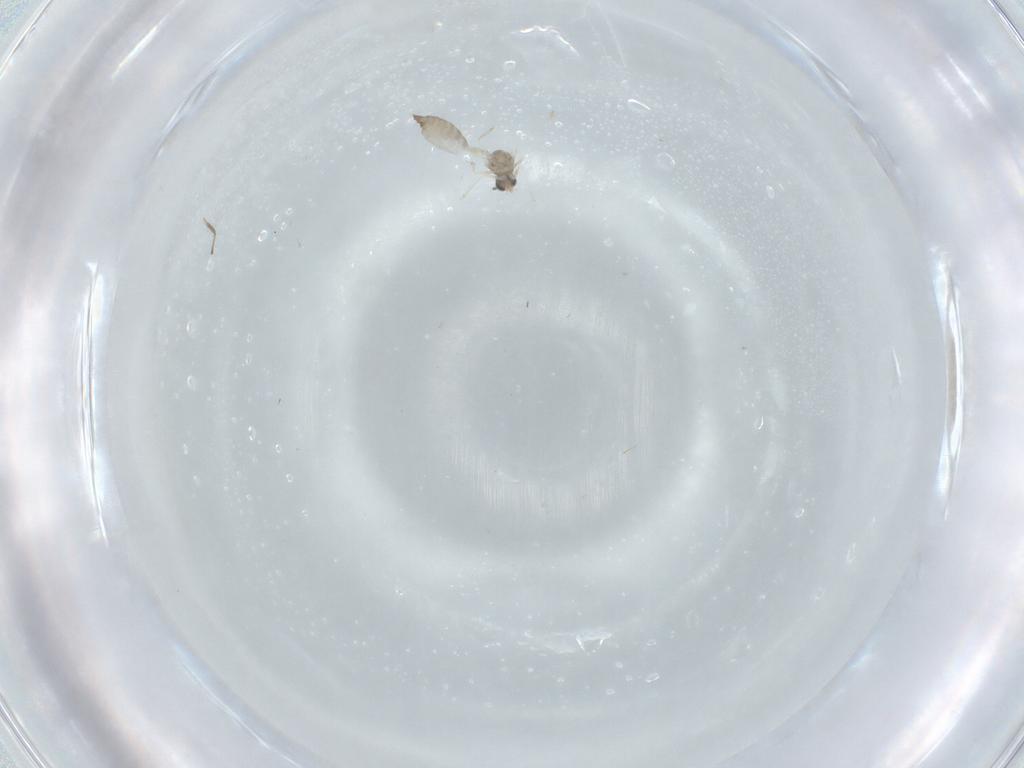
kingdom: Animalia
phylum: Arthropoda
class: Insecta
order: Diptera
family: Cecidomyiidae
